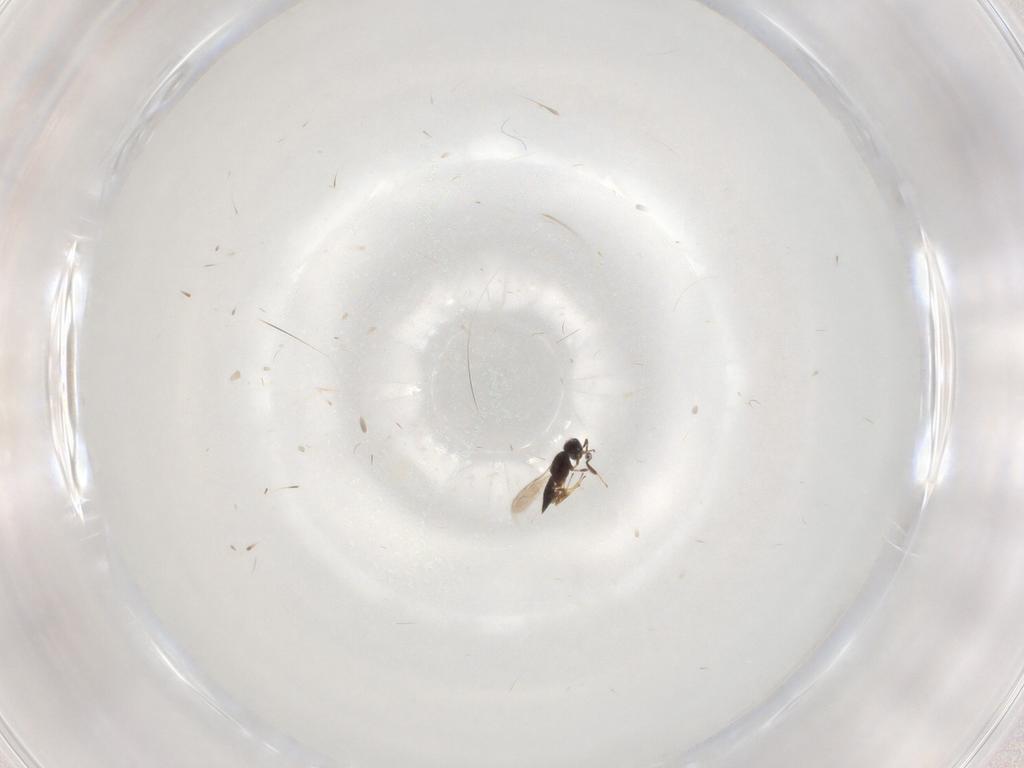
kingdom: Animalia
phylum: Arthropoda
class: Insecta
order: Hymenoptera
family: Scelionidae
